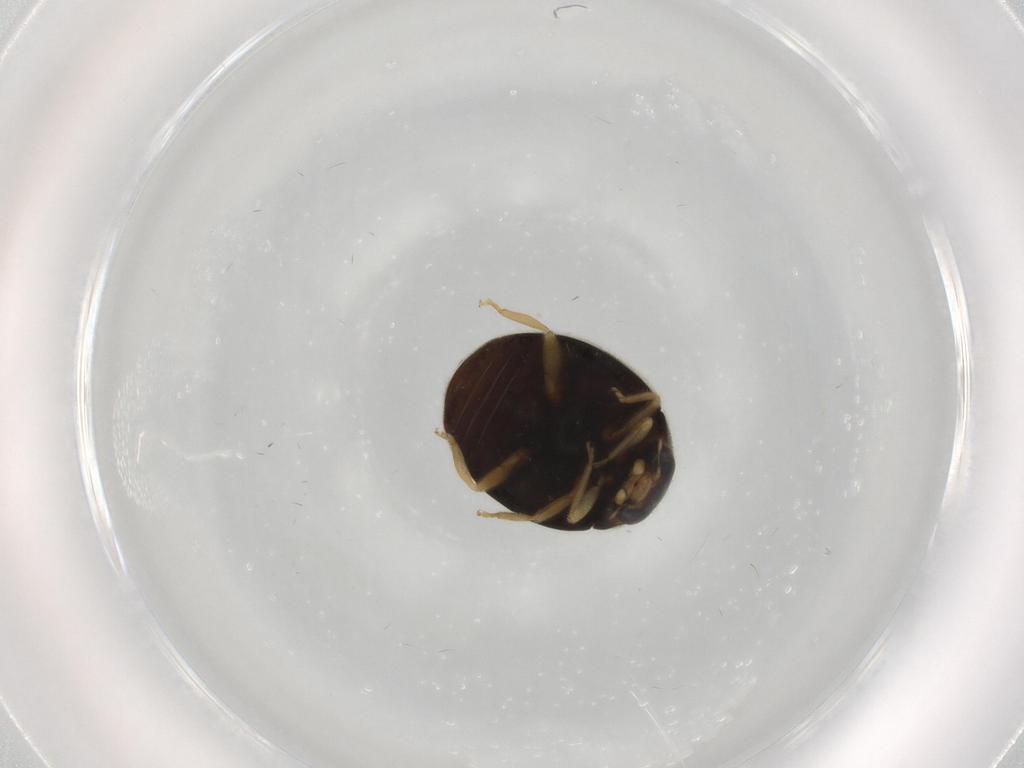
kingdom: Animalia
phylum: Arthropoda
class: Insecta
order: Coleoptera
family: Coccinellidae
